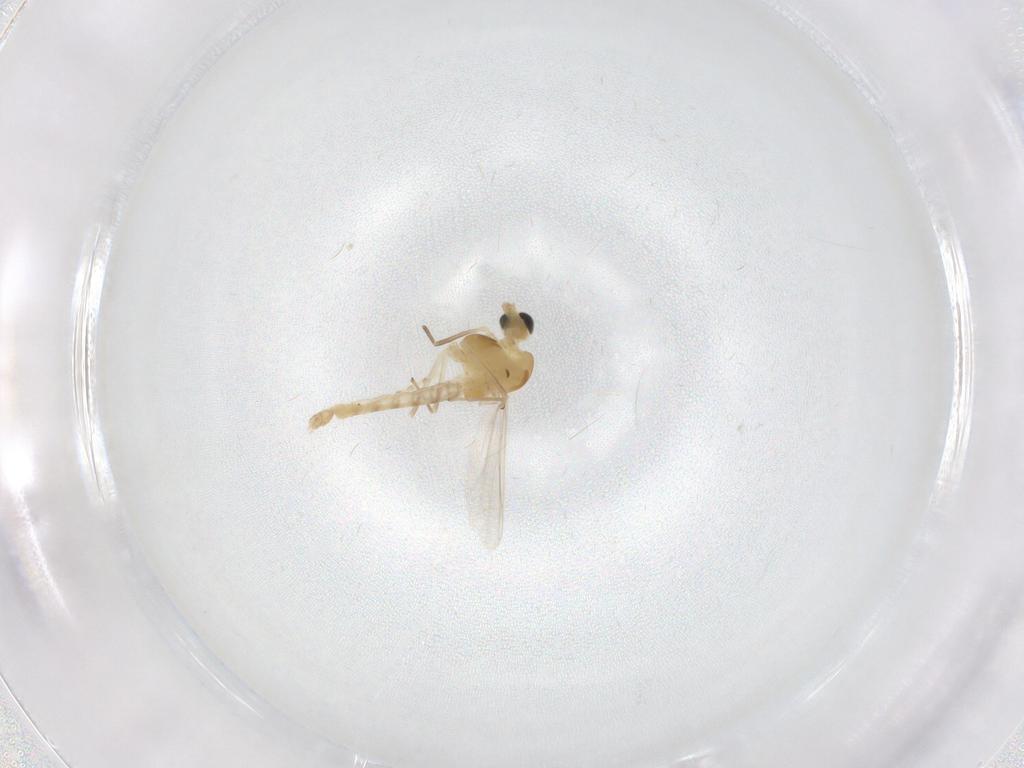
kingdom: Animalia
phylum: Arthropoda
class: Insecta
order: Diptera
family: Chironomidae
